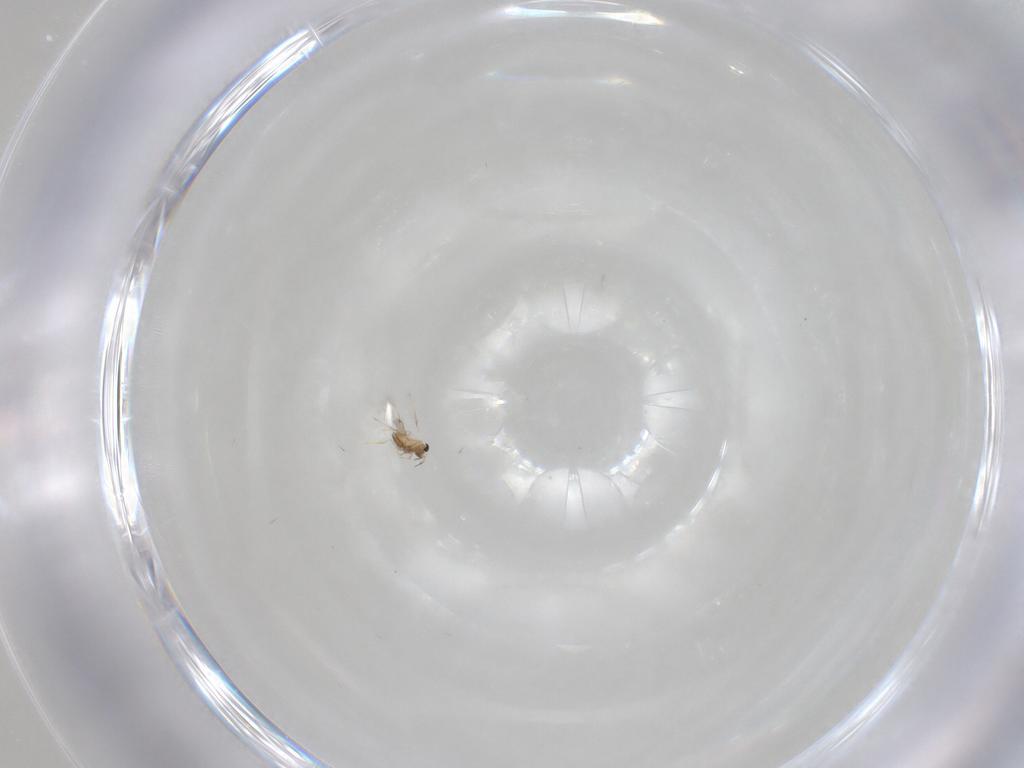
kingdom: Animalia
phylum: Arthropoda
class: Insecta
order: Hymenoptera
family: Trichogrammatidae
